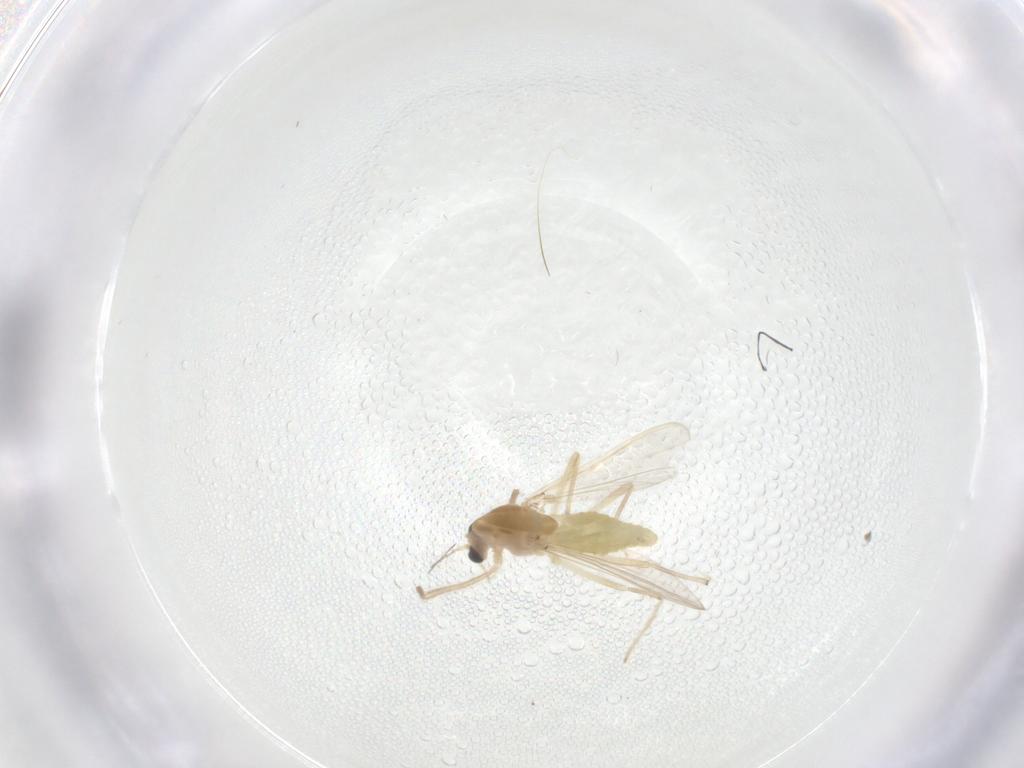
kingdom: Animalia
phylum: Arthropoda
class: Insecta
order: Diptera
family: Chironomidae
